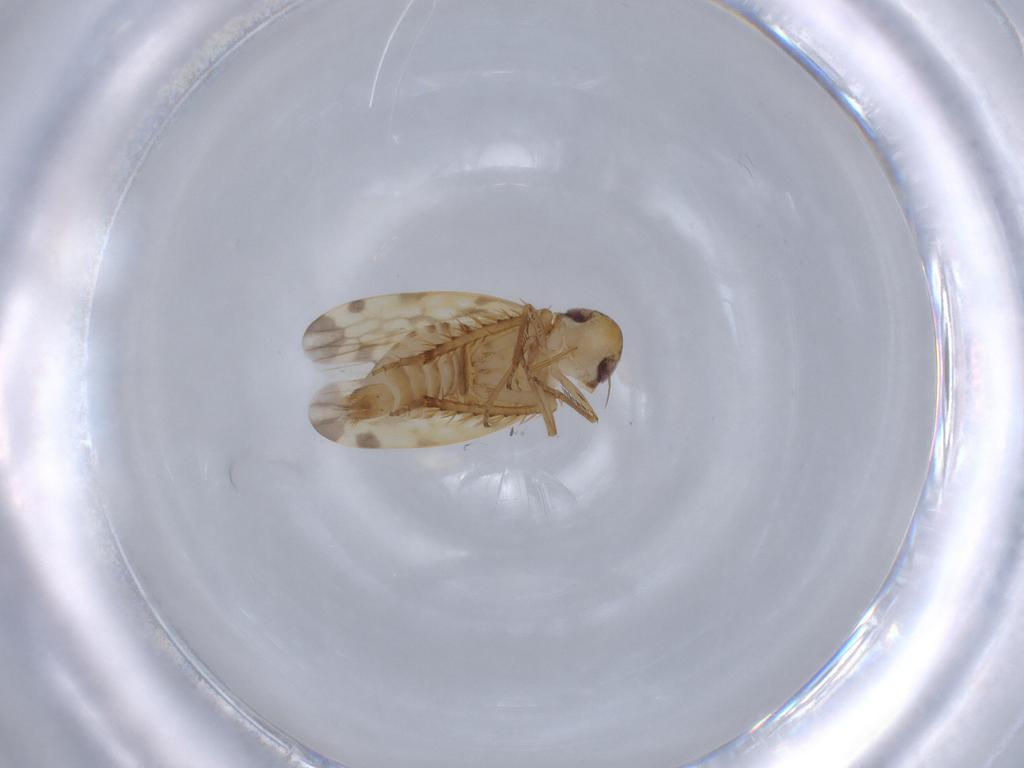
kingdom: Animalia
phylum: Arthropoda
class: Insecta
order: Hemiptera
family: Cicadellidae
